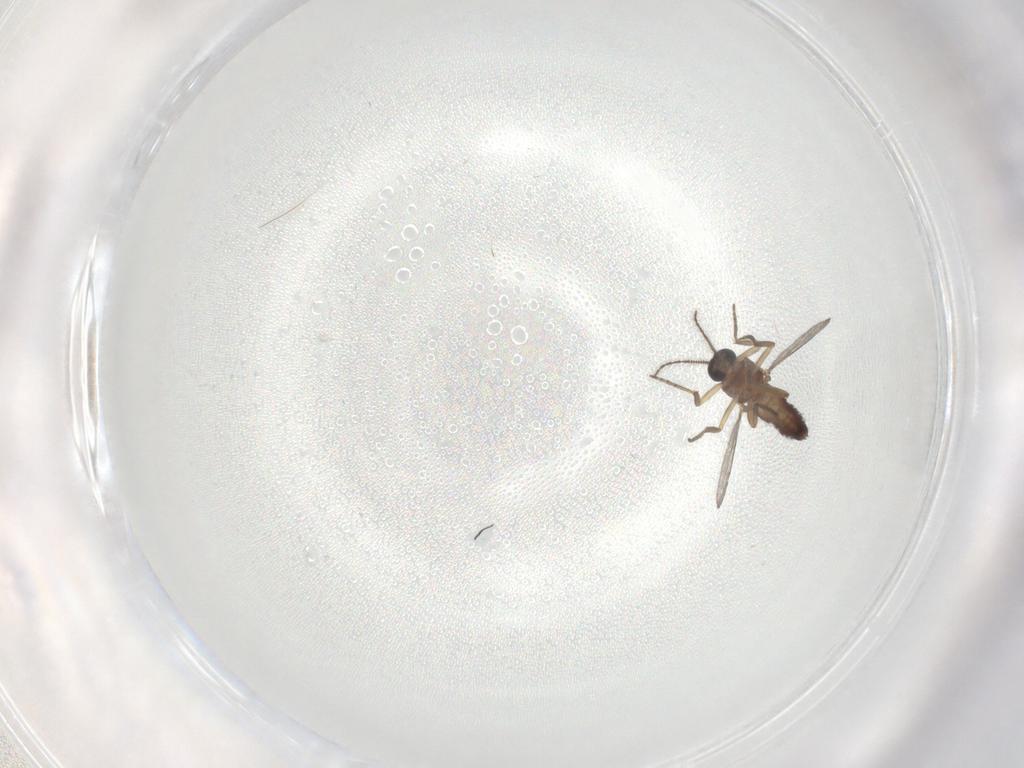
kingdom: Animalia
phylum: Arthropoda
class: Insecta
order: Diptera
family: Ceratopogonidae
